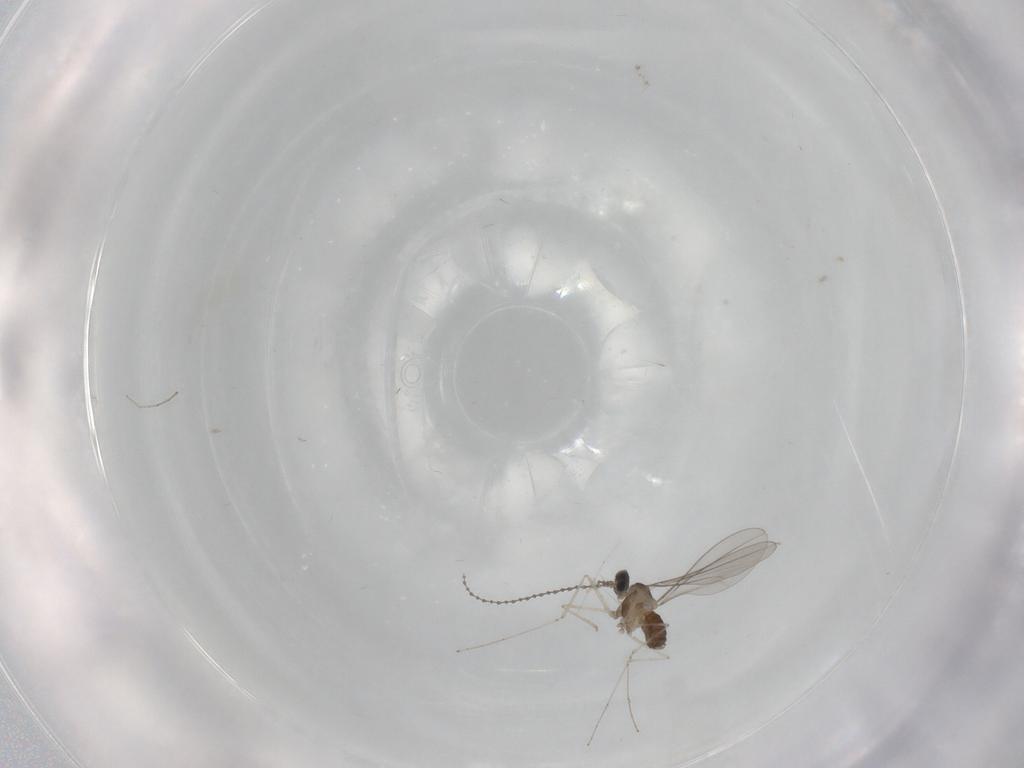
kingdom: Animalia
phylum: Arthropoda
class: Insecta
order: Diptera
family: Cecidomyiidae
